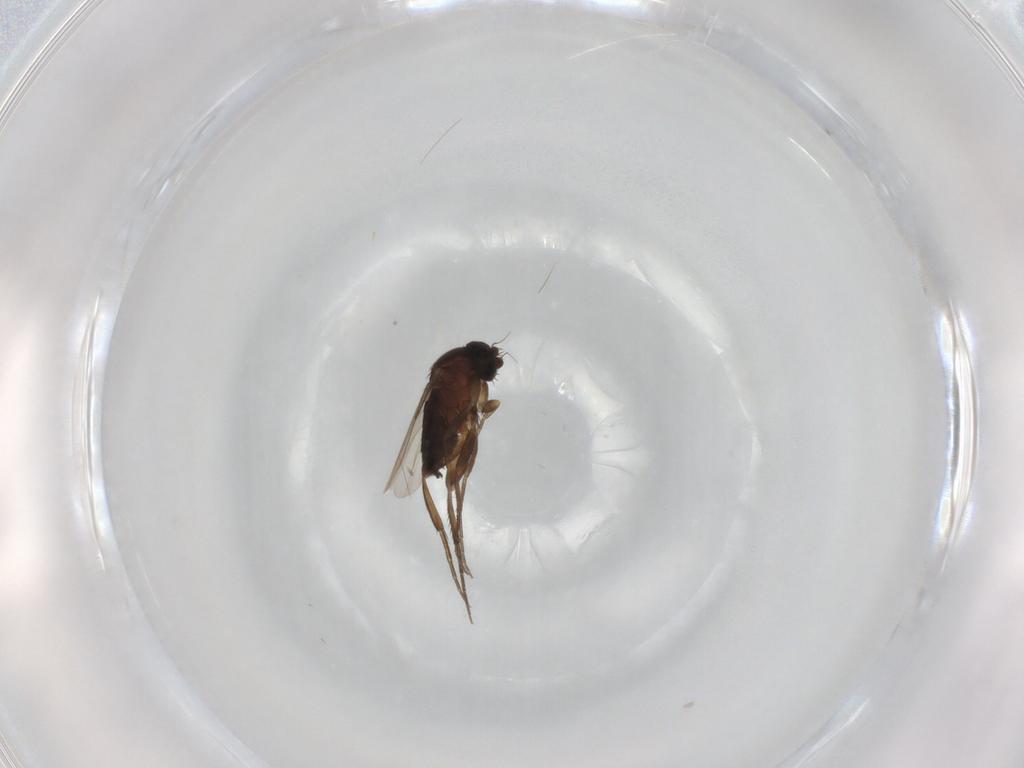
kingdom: Animalia
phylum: Arthropoda
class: Insecta
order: Diptera
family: Phoridae
